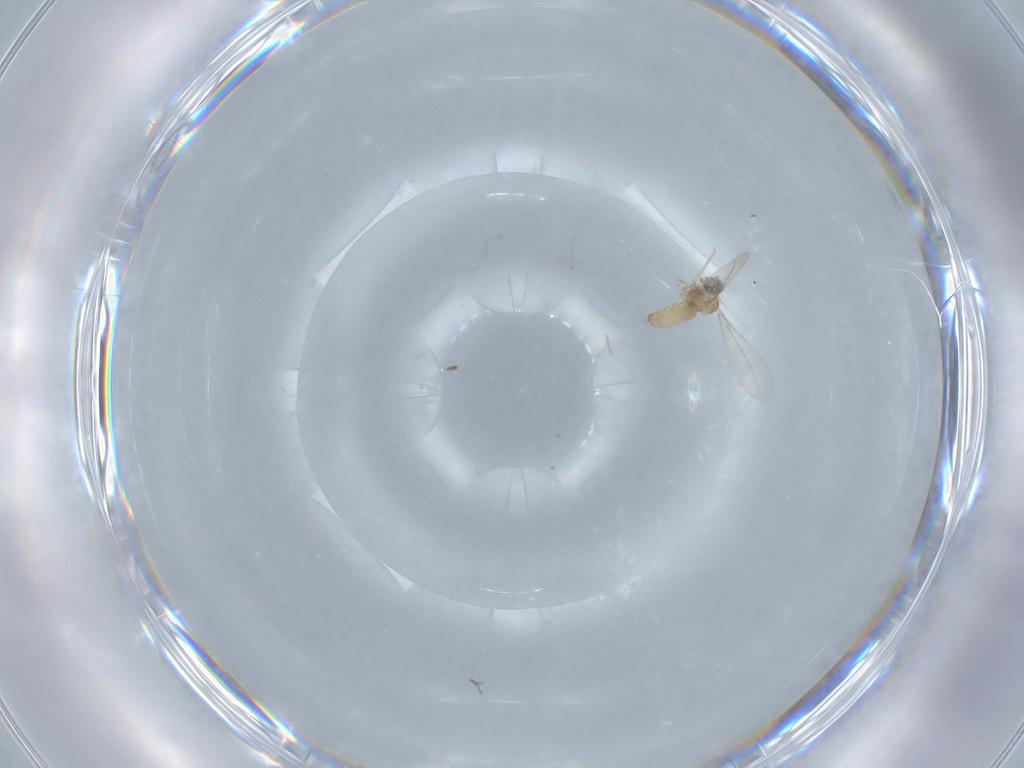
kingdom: Animalia
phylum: Arthropoda
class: Insecta
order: Diptera
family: Cecidomyiidae
